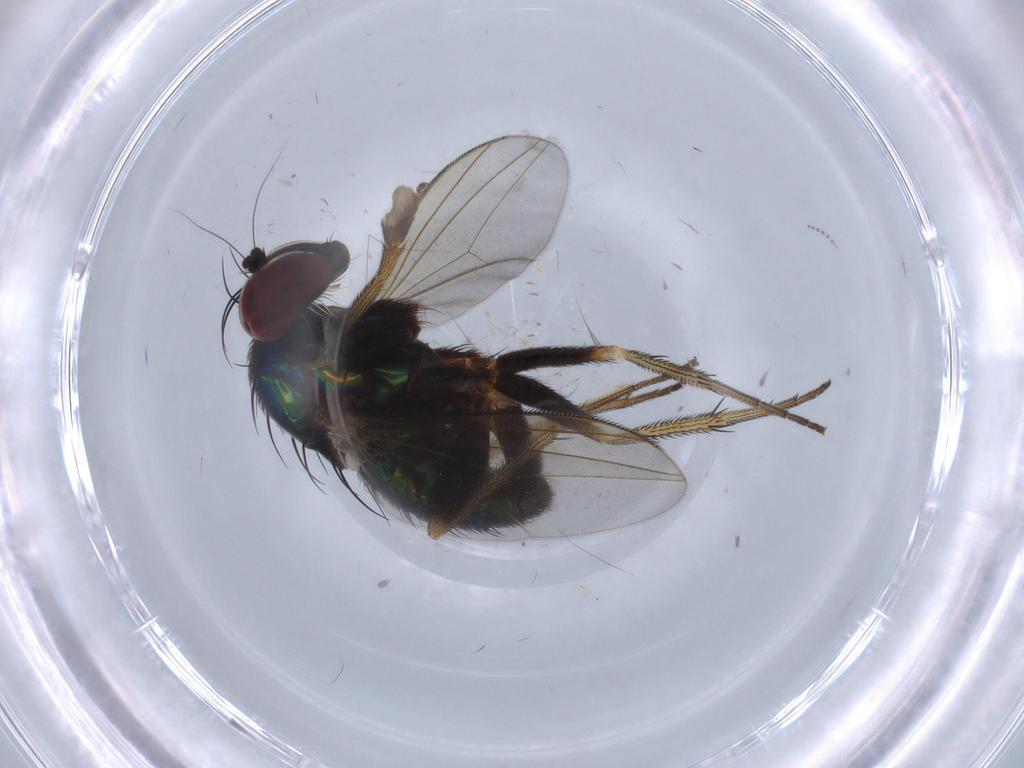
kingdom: Animalia
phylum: Arthropoda
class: Insecta
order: Diptera
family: Dolichopodidae
